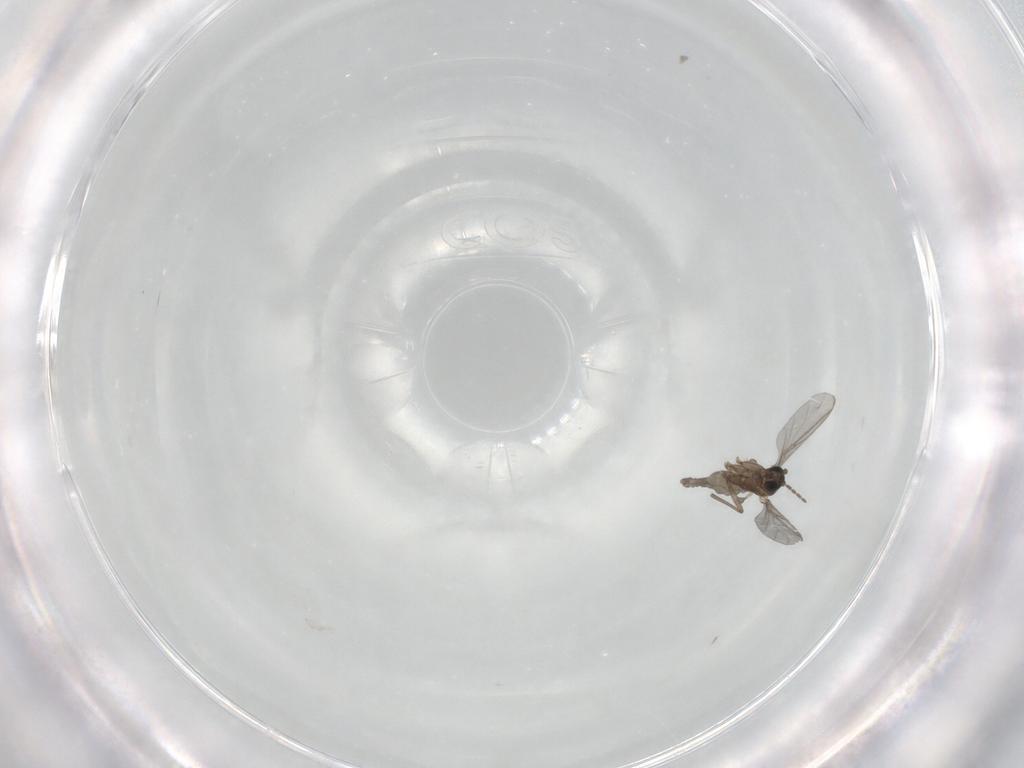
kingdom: Animalia
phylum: Arthropoda
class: Insecta
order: Diptera
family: Sciaridae
